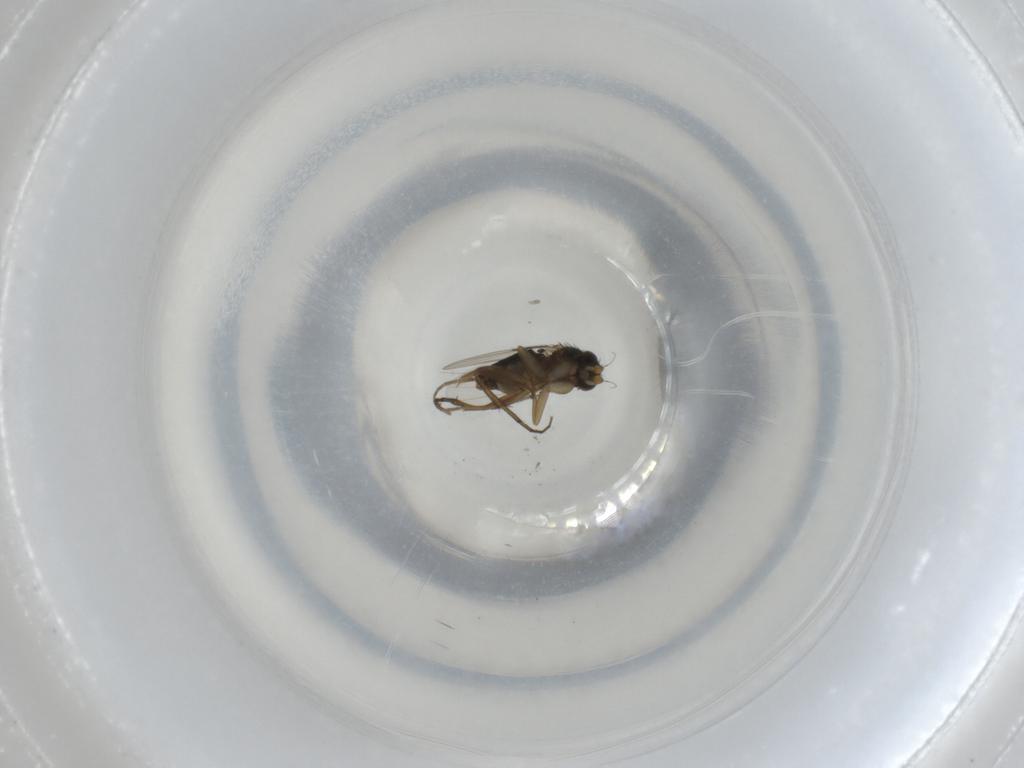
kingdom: Animalia
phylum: Arthropoda
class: Insecta
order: Diptera
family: Phoridae
